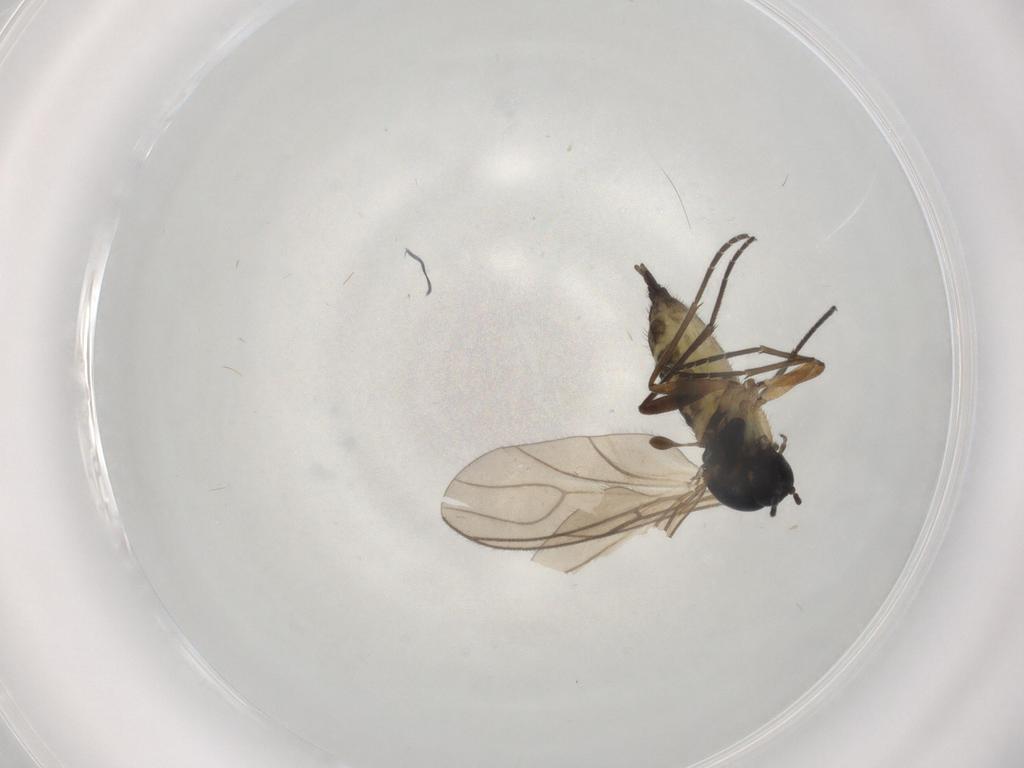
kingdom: Animalia
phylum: Arthropoda
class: Insecta
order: Diptera
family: Sciaridae
